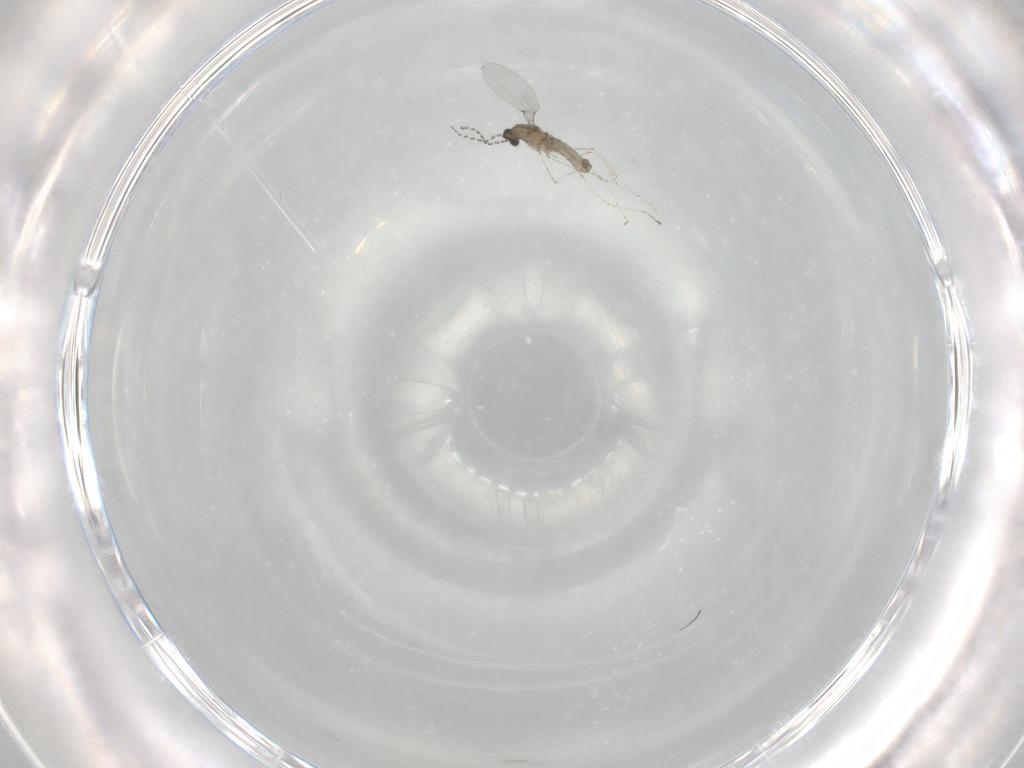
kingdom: Animalia
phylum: Arthropoda
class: Insecta
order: Diptera
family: Cecidomyiidae
